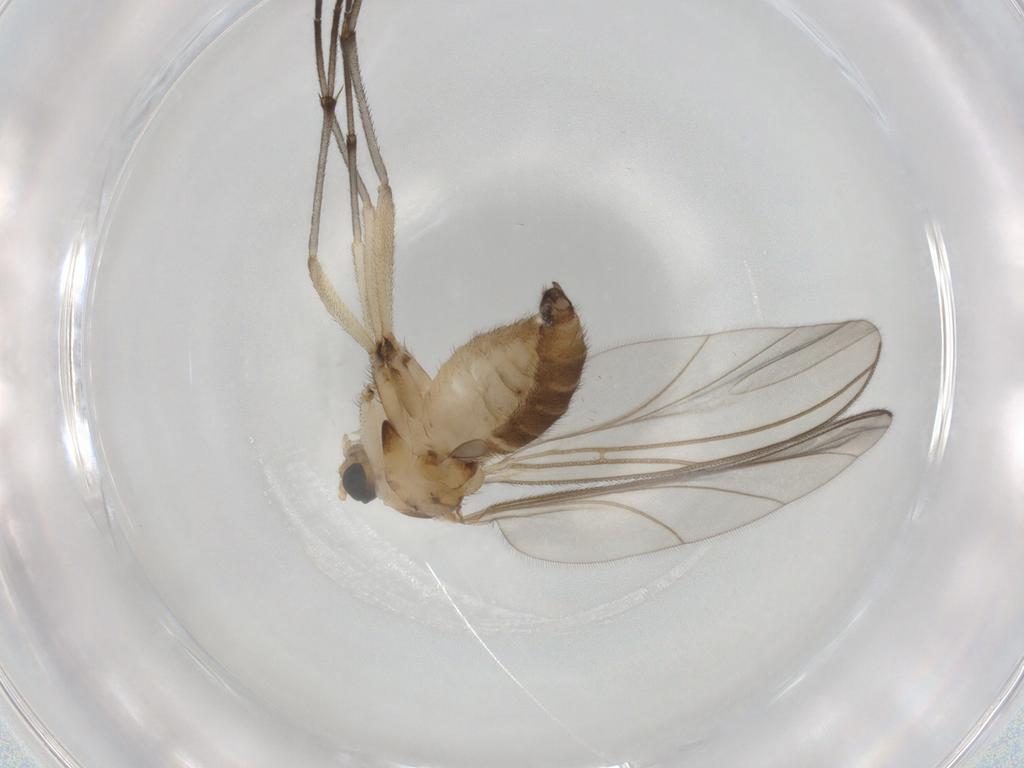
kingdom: Animalia
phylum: Arthropoda
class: Insecta
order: Diptera
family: Sciaridae
